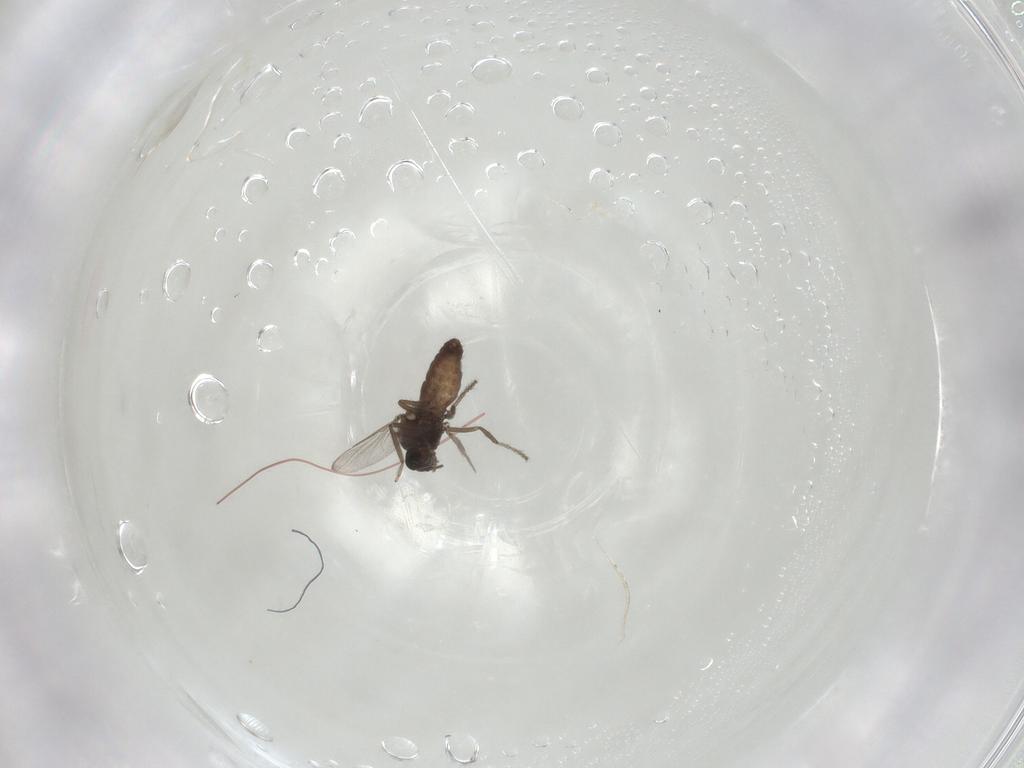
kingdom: Animalia
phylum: Arthropoda
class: Insecta
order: Diptera
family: Ceratopogonidae
